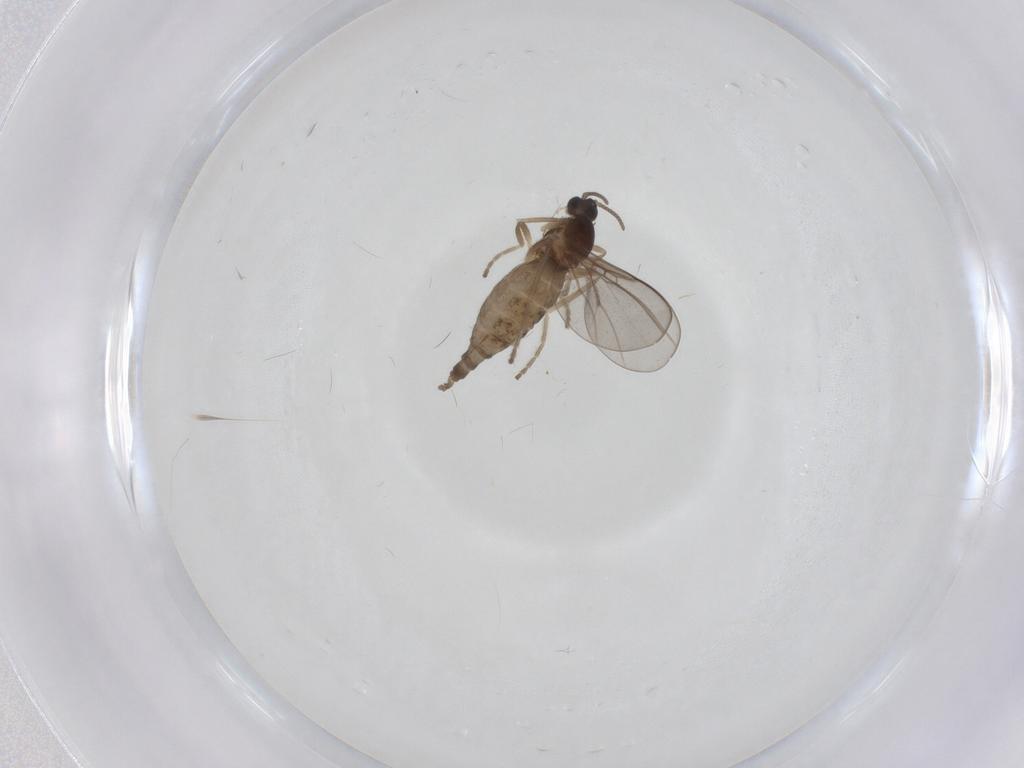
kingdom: Animalia
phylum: Arthropoda
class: Insecta
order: Diptera
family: Cecidomyiidae
